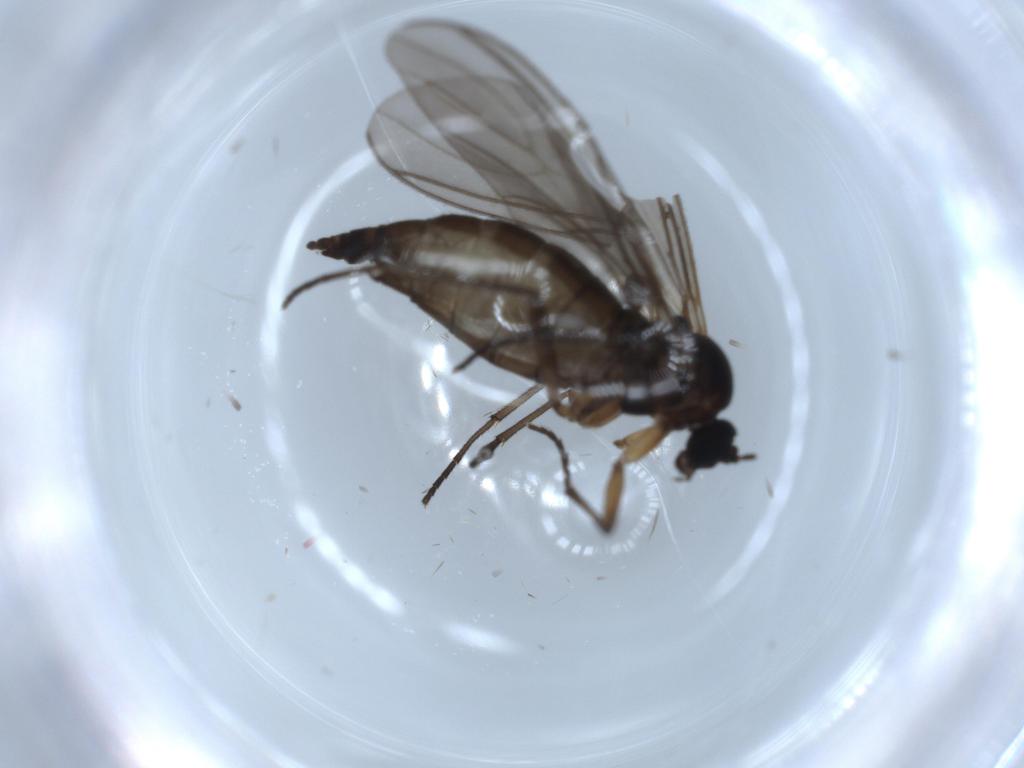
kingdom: Animalia
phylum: Arthropoda
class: Insecta
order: Diptera
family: Sciaridae
